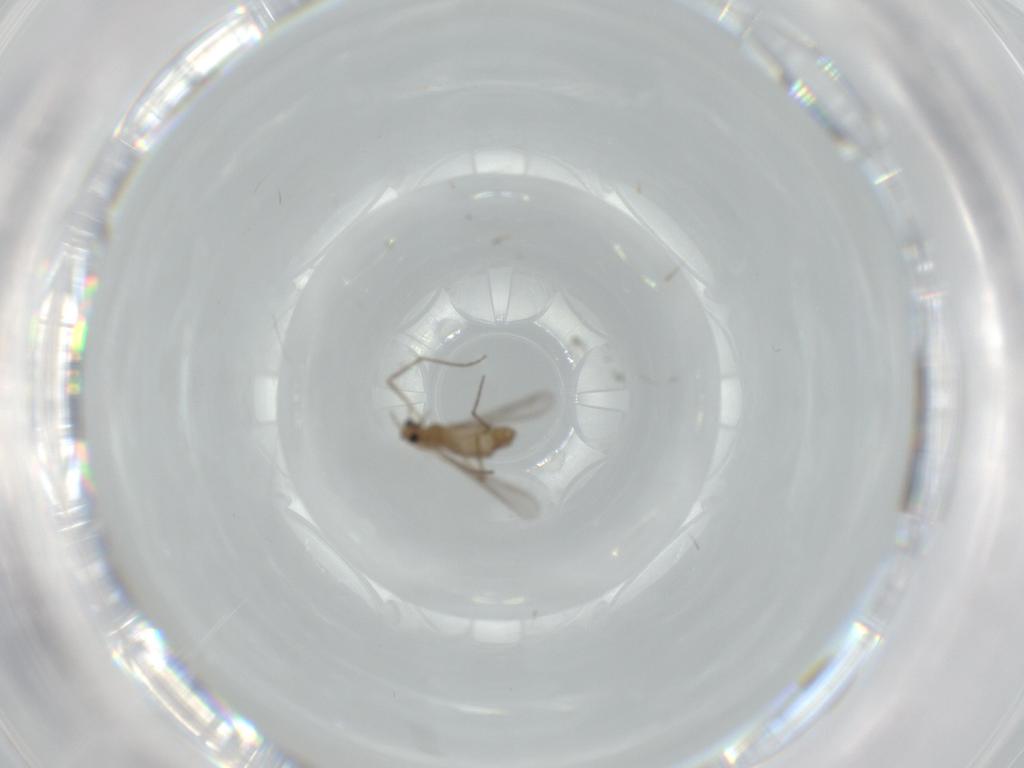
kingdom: Animalia
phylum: Arthropoda
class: Insecta
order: Diptera
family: Chironomidae
